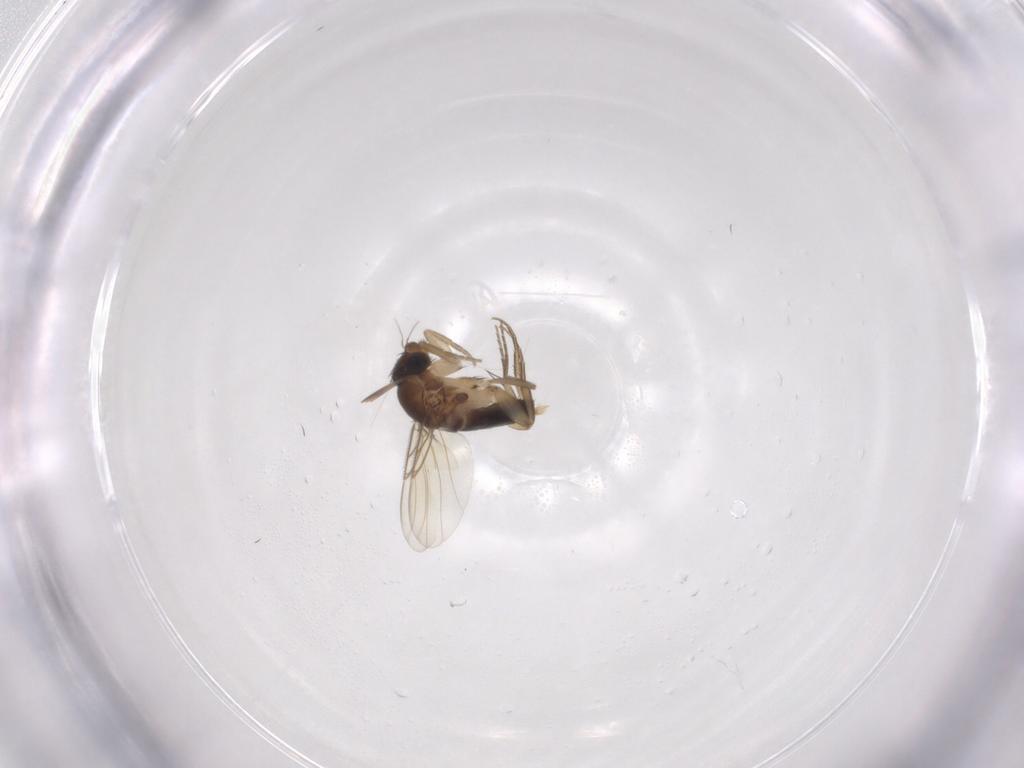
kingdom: Animalia
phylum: Arthropoda
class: Insecta
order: Diptera
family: Phoridae
